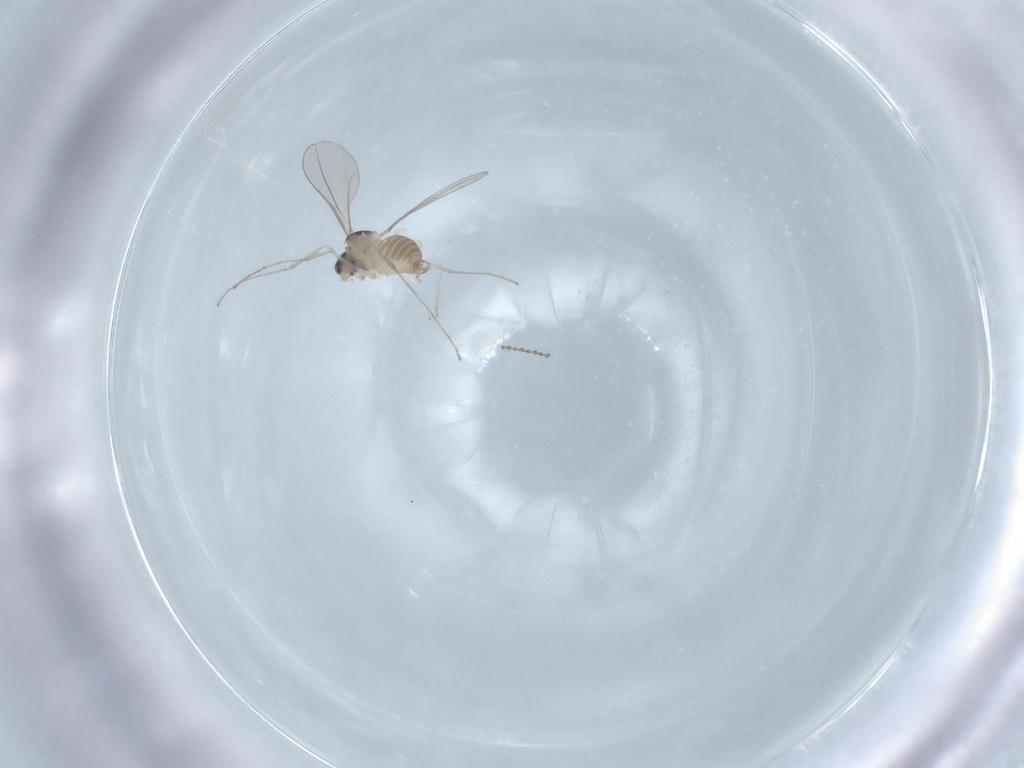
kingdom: Animalia
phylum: Arthropoda
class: Insecta
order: Diptera
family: Cecidomyiidae
